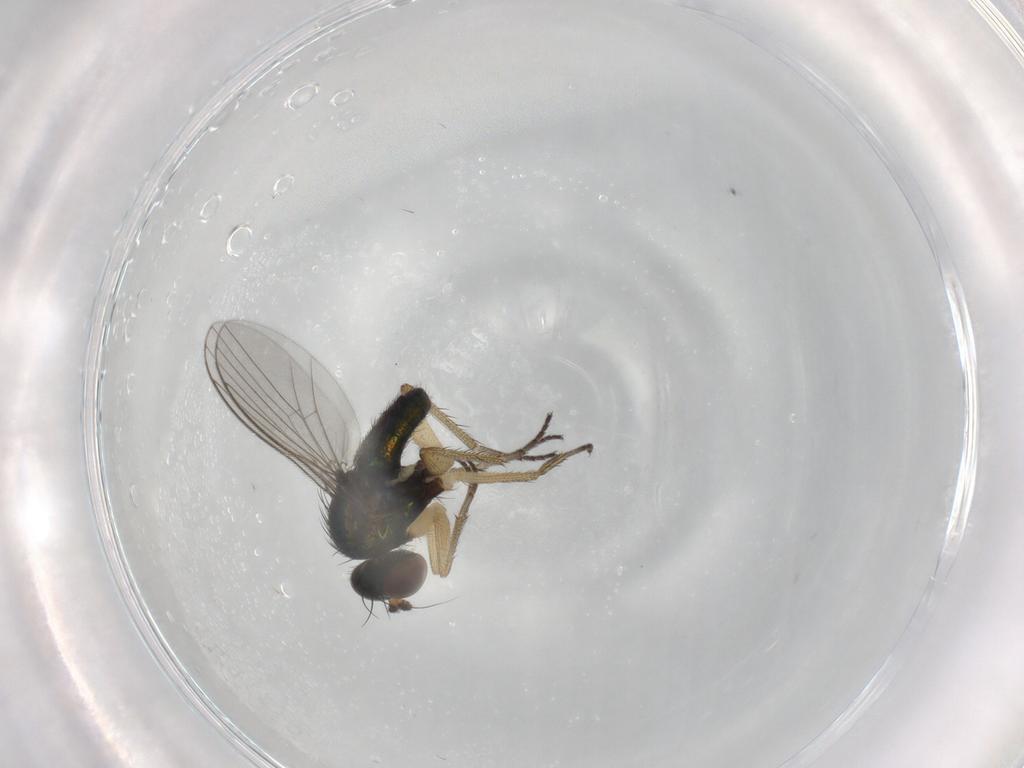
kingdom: Animalia
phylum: Arthropoda
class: Insecta
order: Diptera
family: Dolichopodidae
